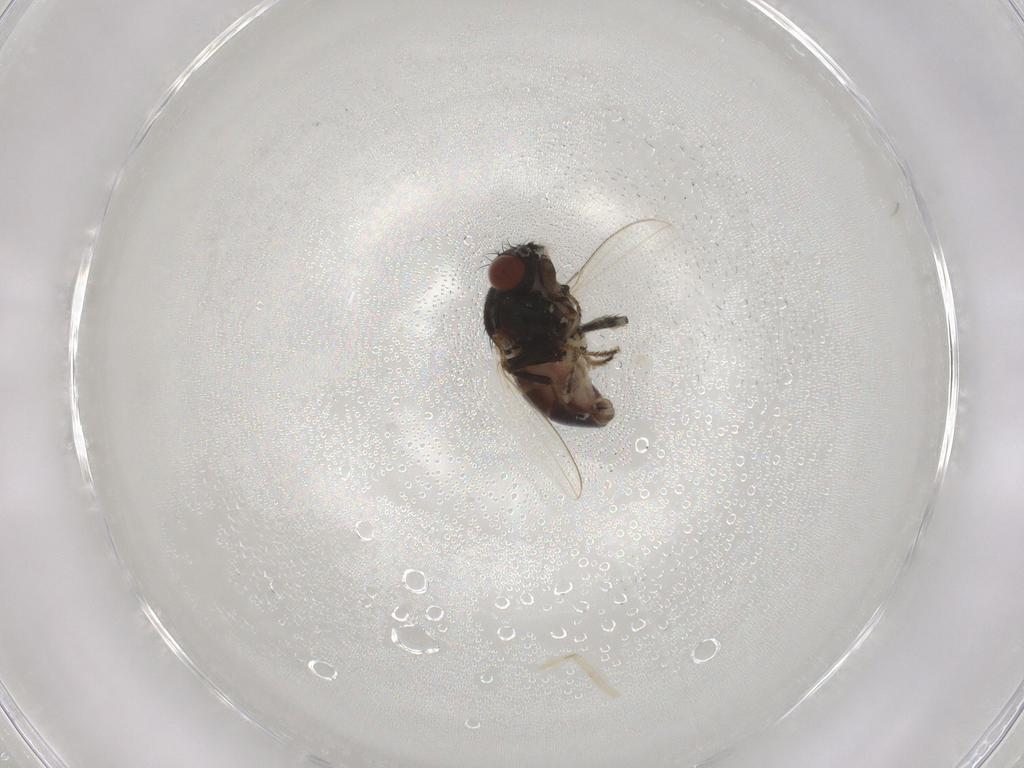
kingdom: Animalia
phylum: Arthropoda
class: Insecta
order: Diptera
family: Ephydridae
